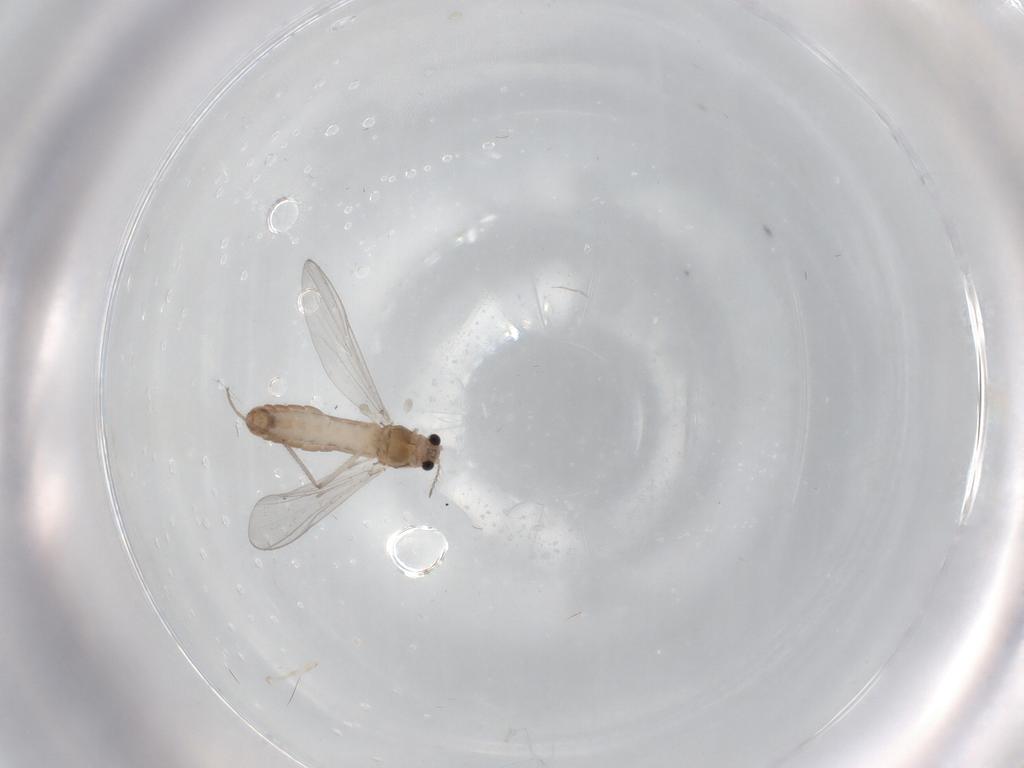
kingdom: Animalia
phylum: Arthropoda
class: Insecta
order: Diptera
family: Chironomidae
